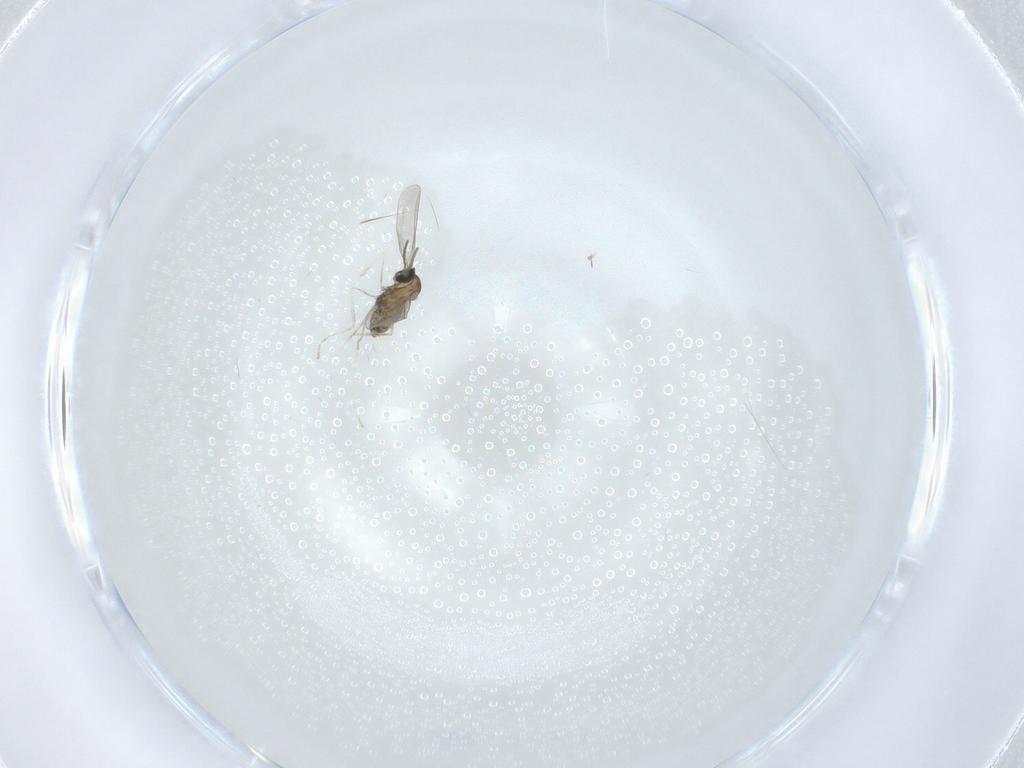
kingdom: Animalia
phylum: Arthropoda
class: Insecta
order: Diptera
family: Cecidomyiidae
